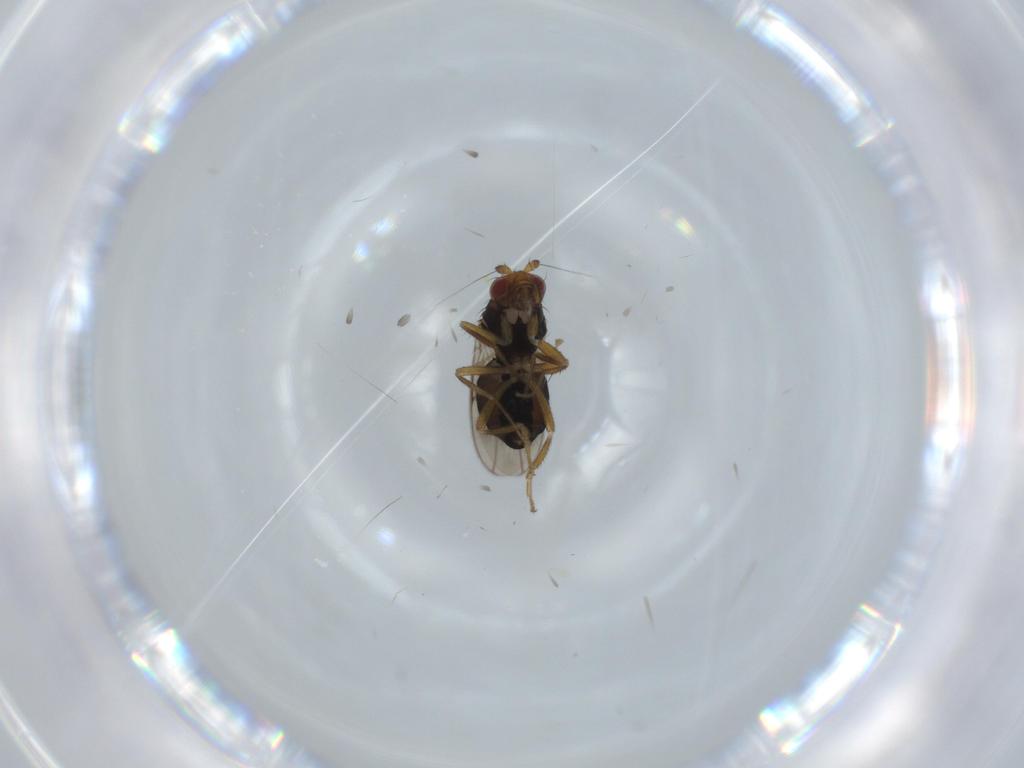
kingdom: Animalia
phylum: Arthropoda
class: Insecta
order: Diptera
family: Sphaeroceridae
